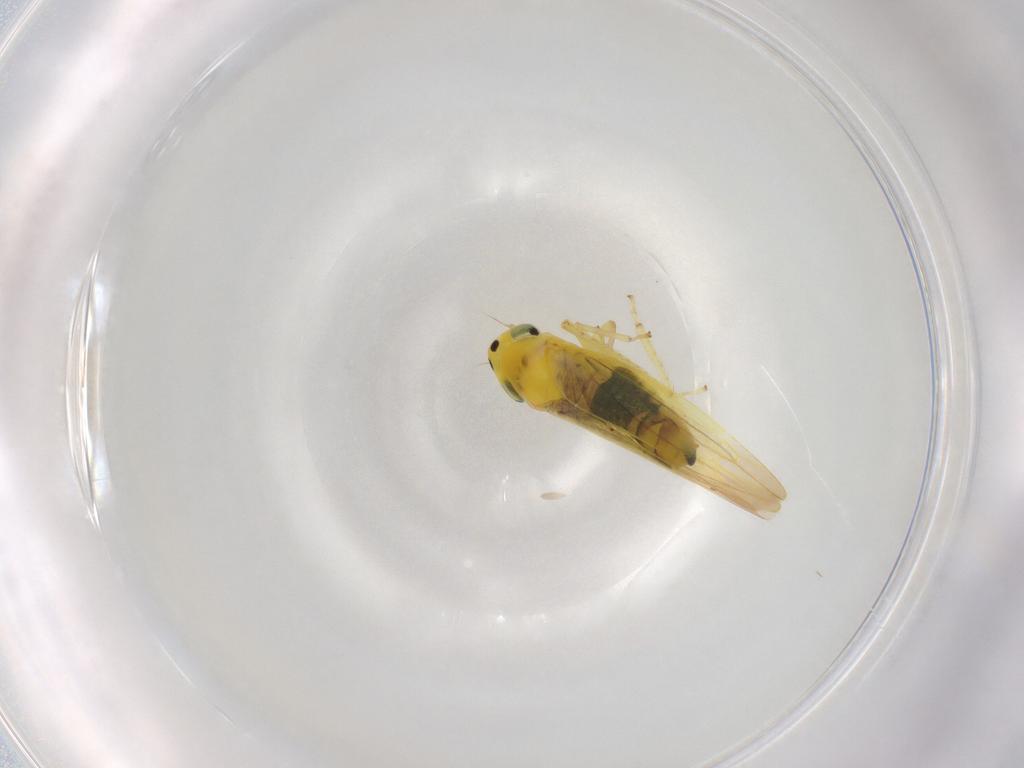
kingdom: Animalia
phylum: Arthropoda
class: Insecta
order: Hemiptera
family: Cicadellidae
